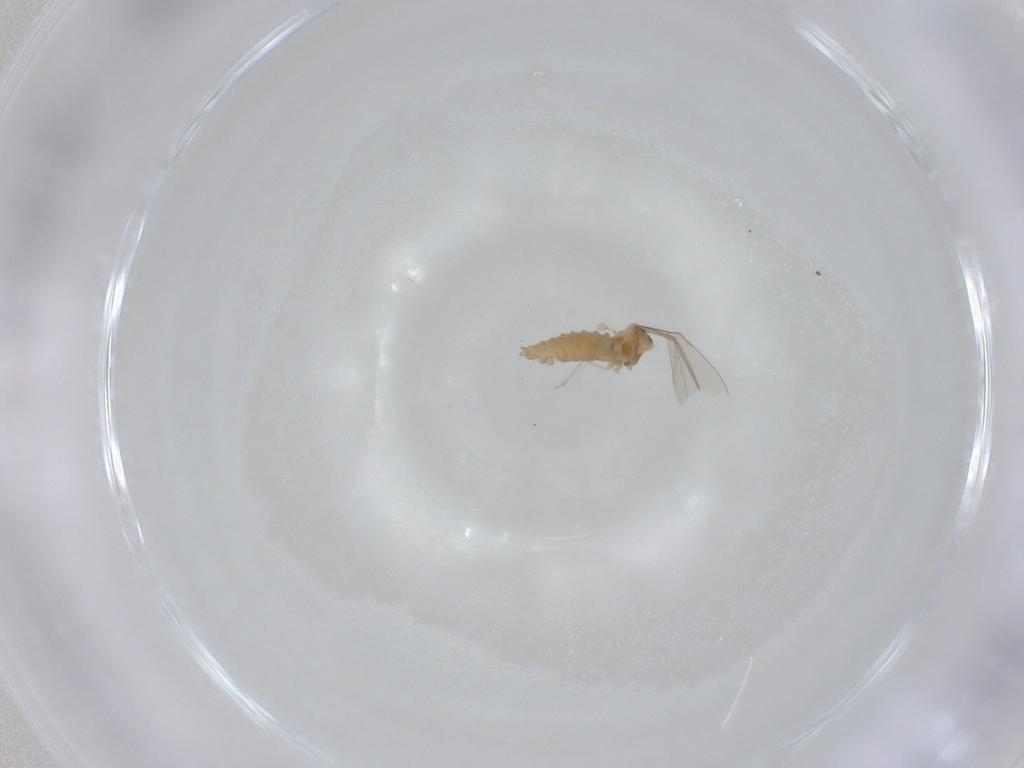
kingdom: Animalia
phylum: Arthropoda
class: Insecta
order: Diptera
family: Cecidomyiidae
